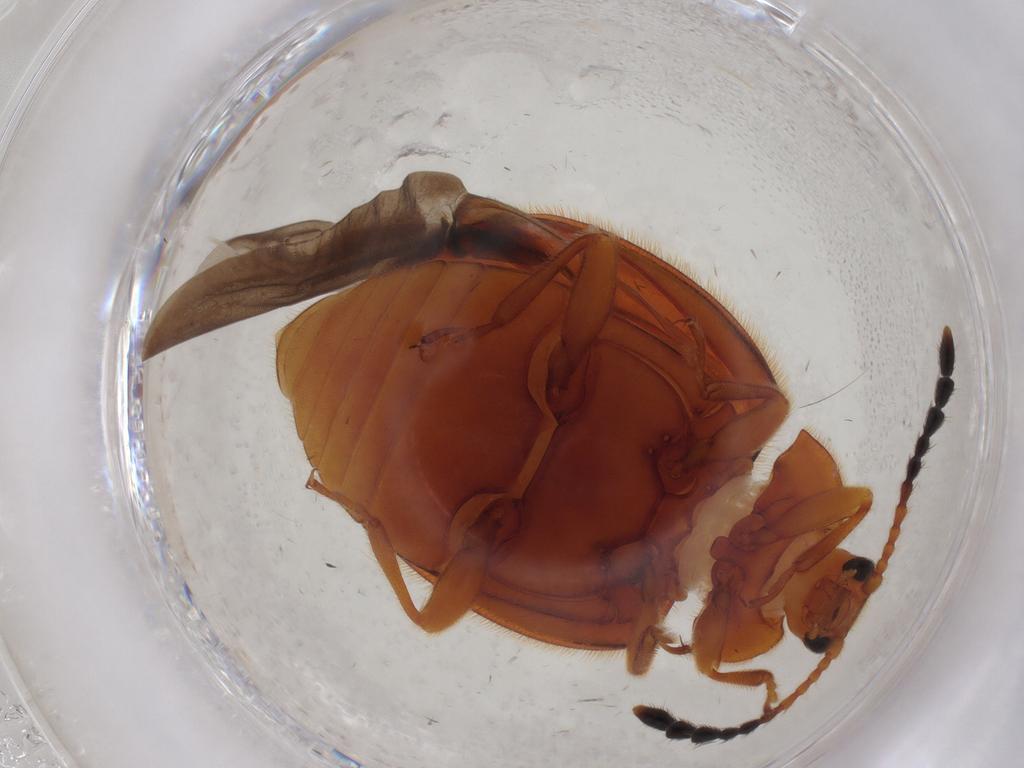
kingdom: Animalia
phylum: Arthropoda
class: Insecta
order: Coleoptera
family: Endomychidae
